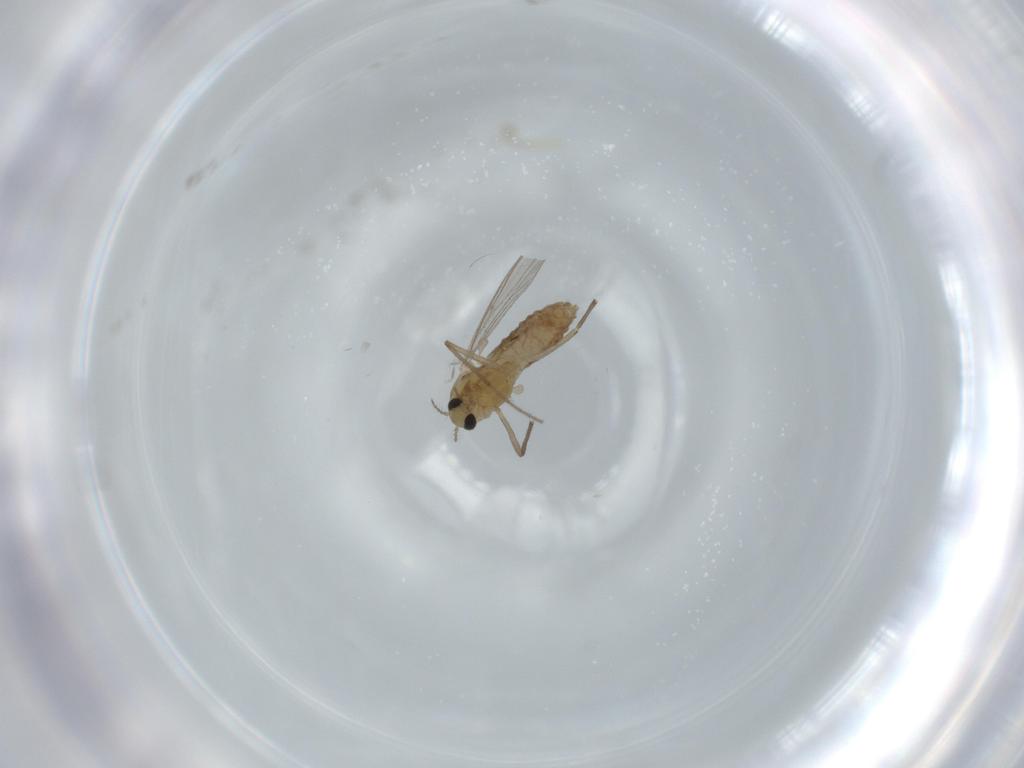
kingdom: Animalia
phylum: Arthropoda
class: Insecta
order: Diptera
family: Chironomidae
